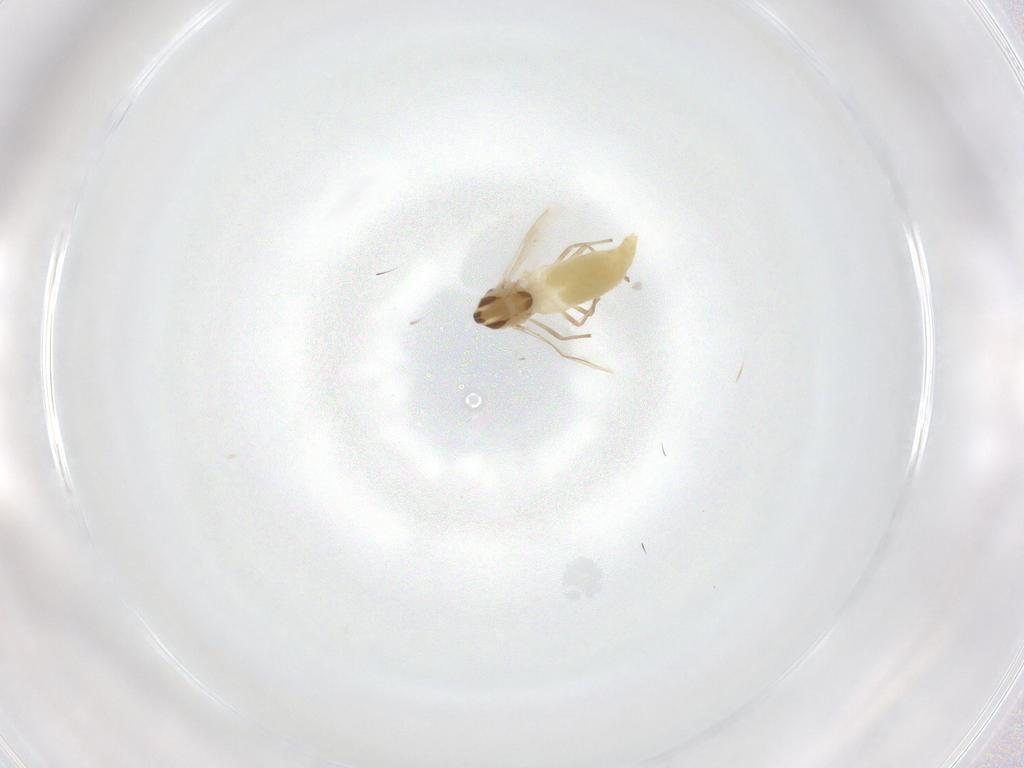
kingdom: Animalia
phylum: Arthropoda
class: Insecta
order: Diptera
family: Chironomidae
